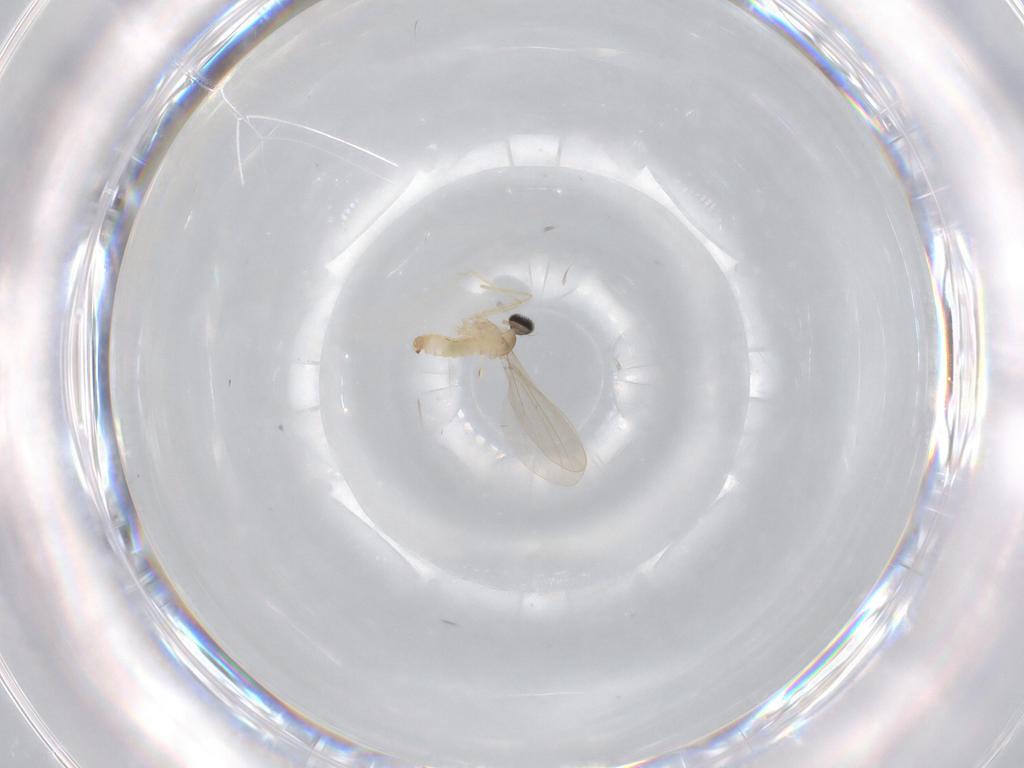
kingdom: Animalia
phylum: Arthropoda
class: Insecta
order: Diptera
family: Cecidomyiidae
